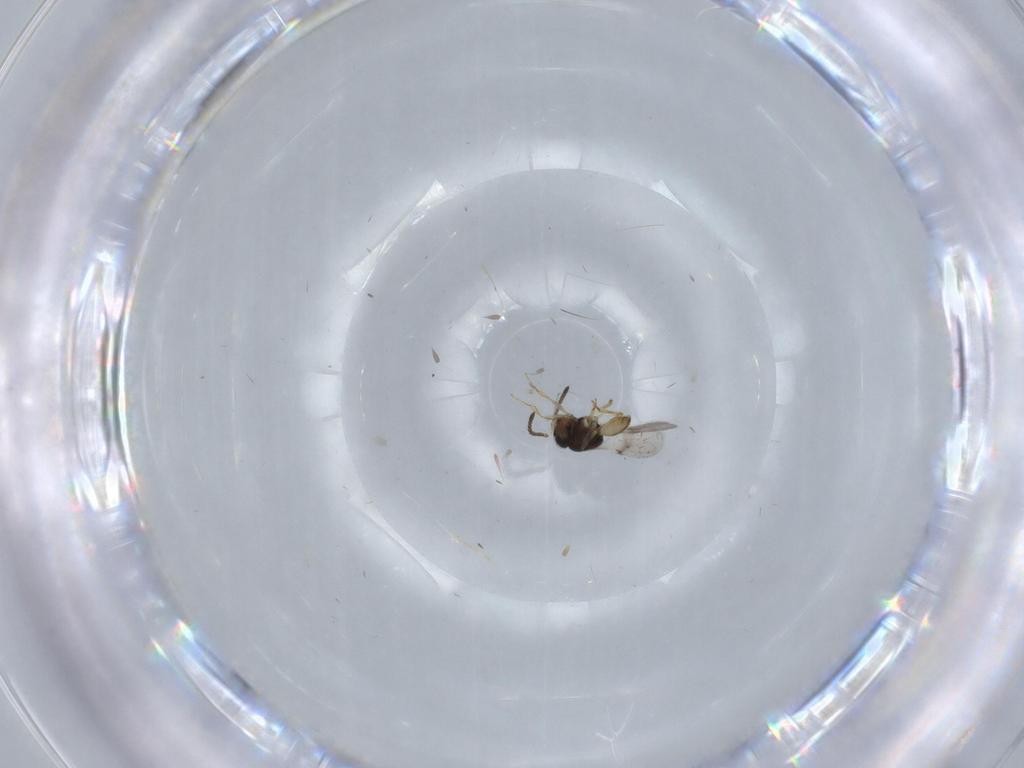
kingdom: Animalia
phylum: Arthropoda
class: Insecta
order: Hymenoptera
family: Scelionidae
